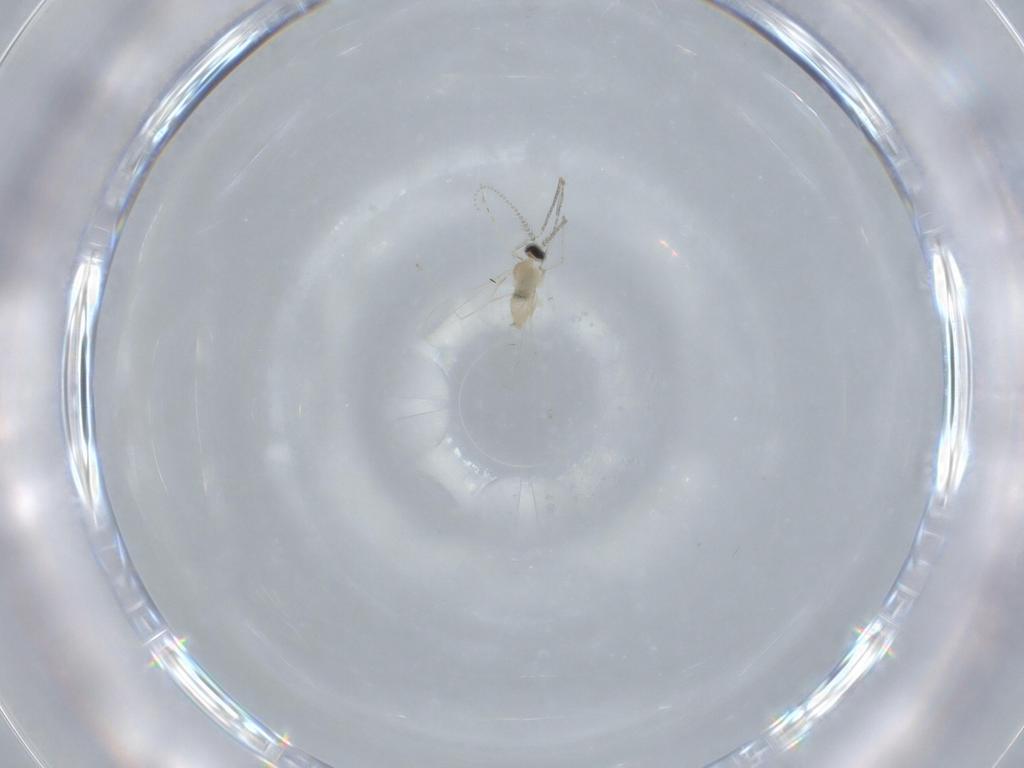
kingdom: Animalia
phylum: Arthropoda
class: Insecta
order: Diptera
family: Cecidomyiidae
